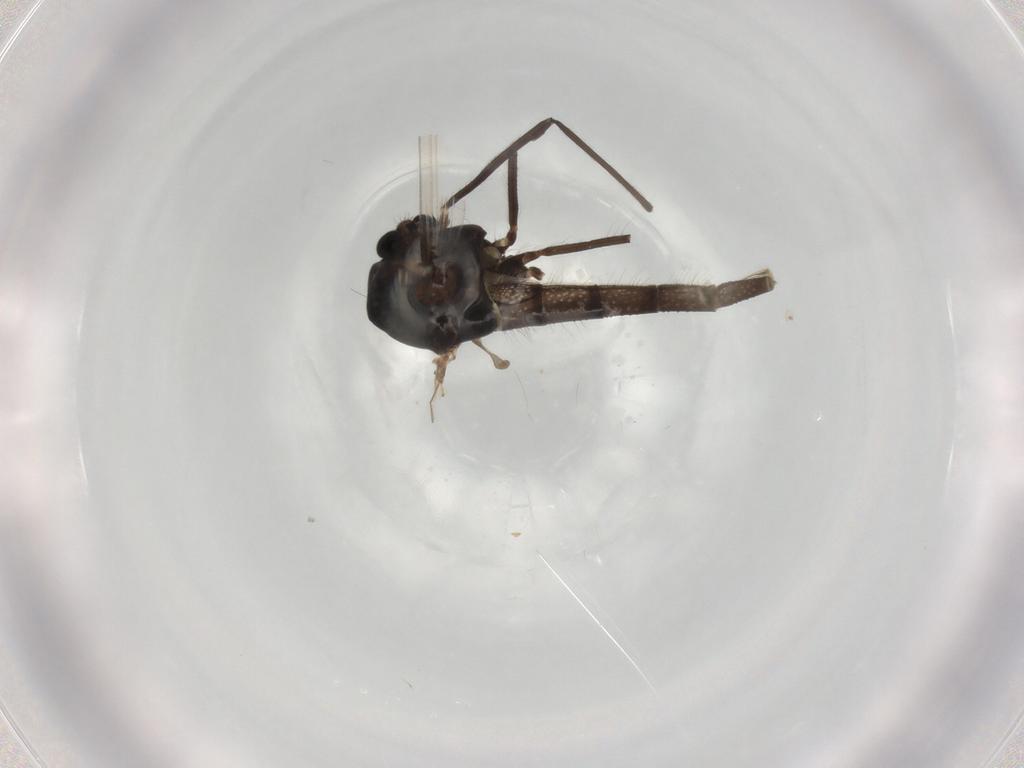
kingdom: Animalia
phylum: Arthropoda
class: Insecta
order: Diptera
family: Chironomidae
